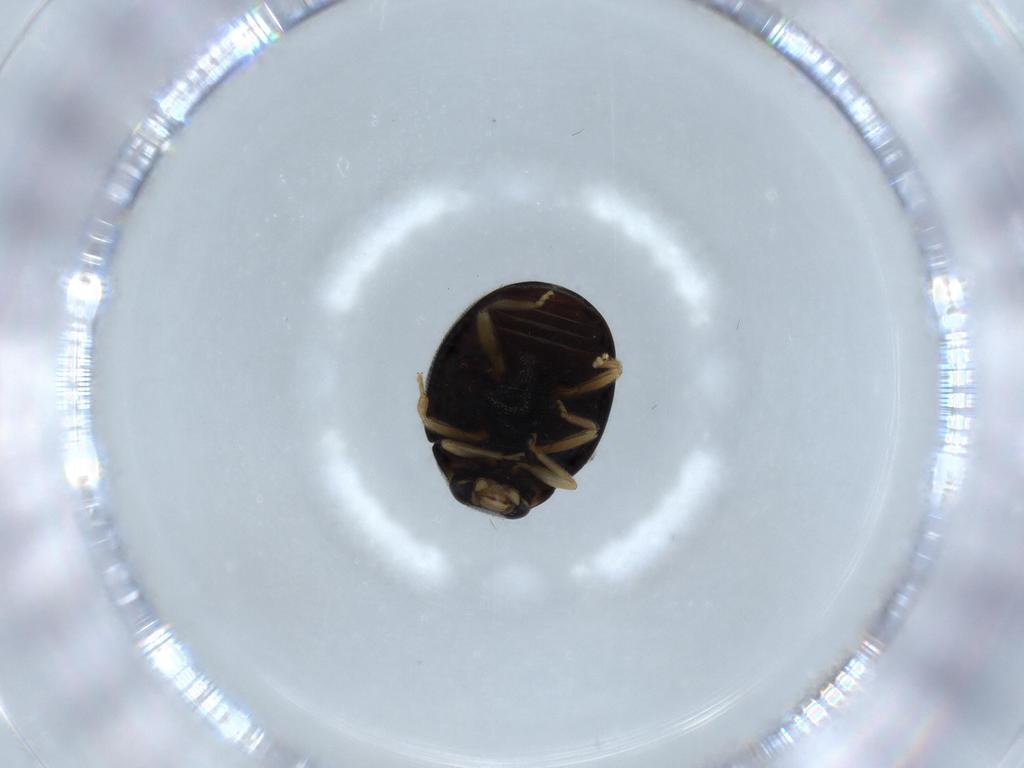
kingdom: Animalia
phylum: Arthropoda
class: Insecta
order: Coleoptera
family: Coccinellidae
